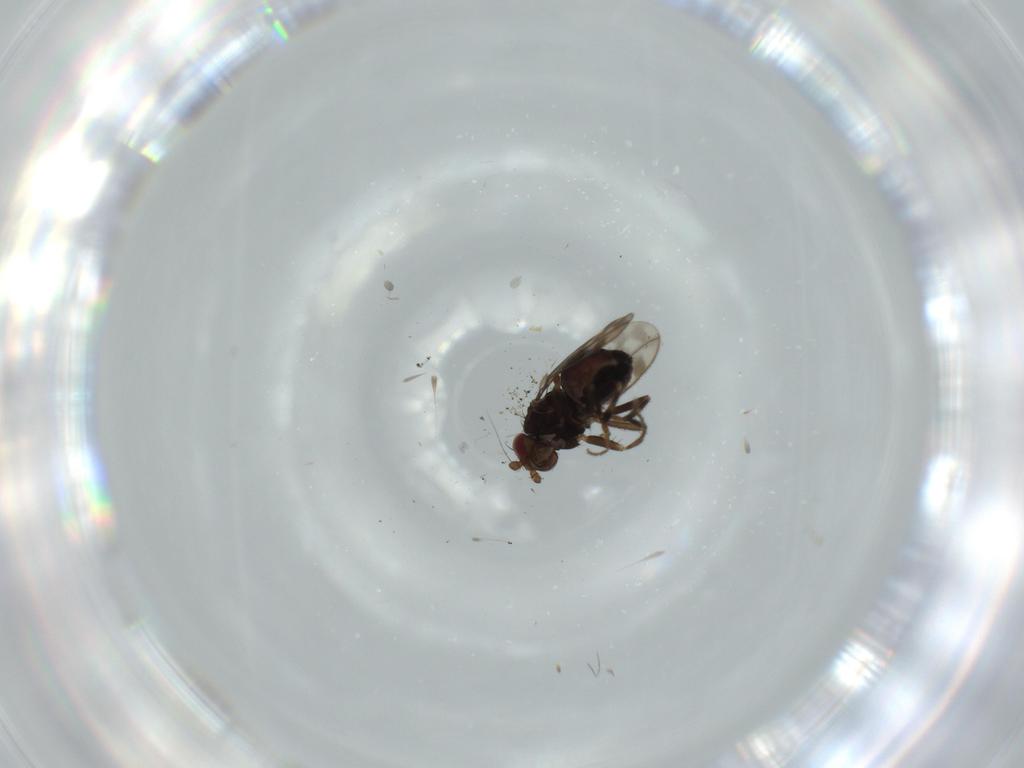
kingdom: Animalia
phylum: Arthropoda
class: Insecta
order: Diptera
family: Sphaeroceridae
